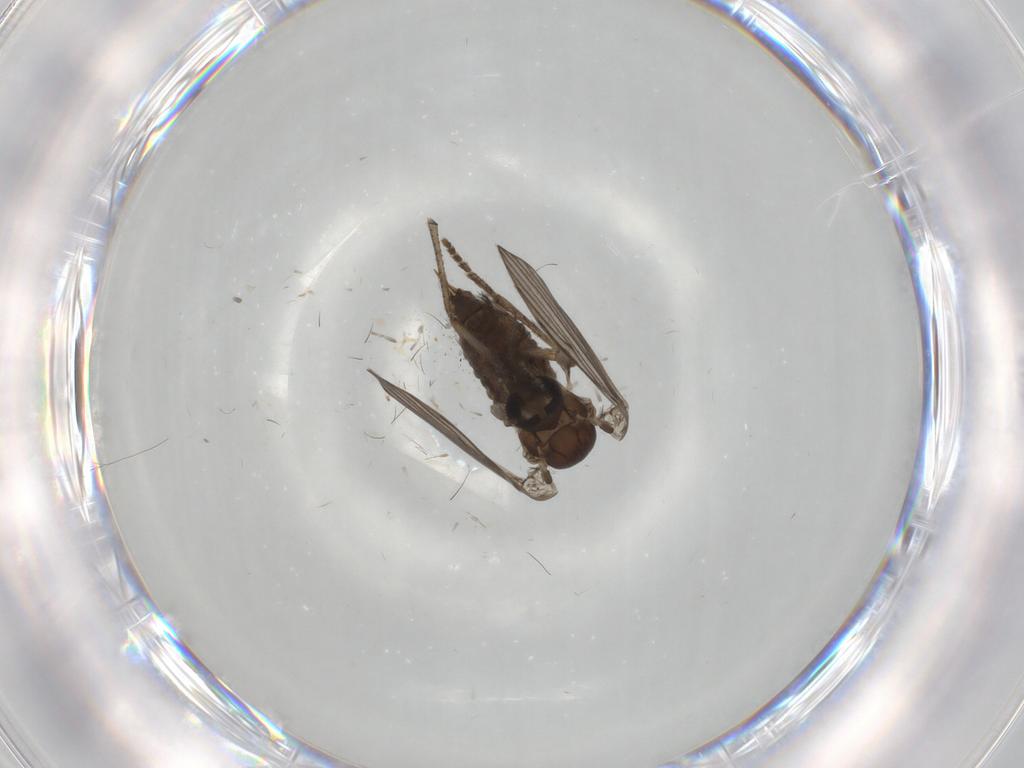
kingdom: Animalia
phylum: Arthropoda
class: Insecta
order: Diptera
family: Psychodidae
